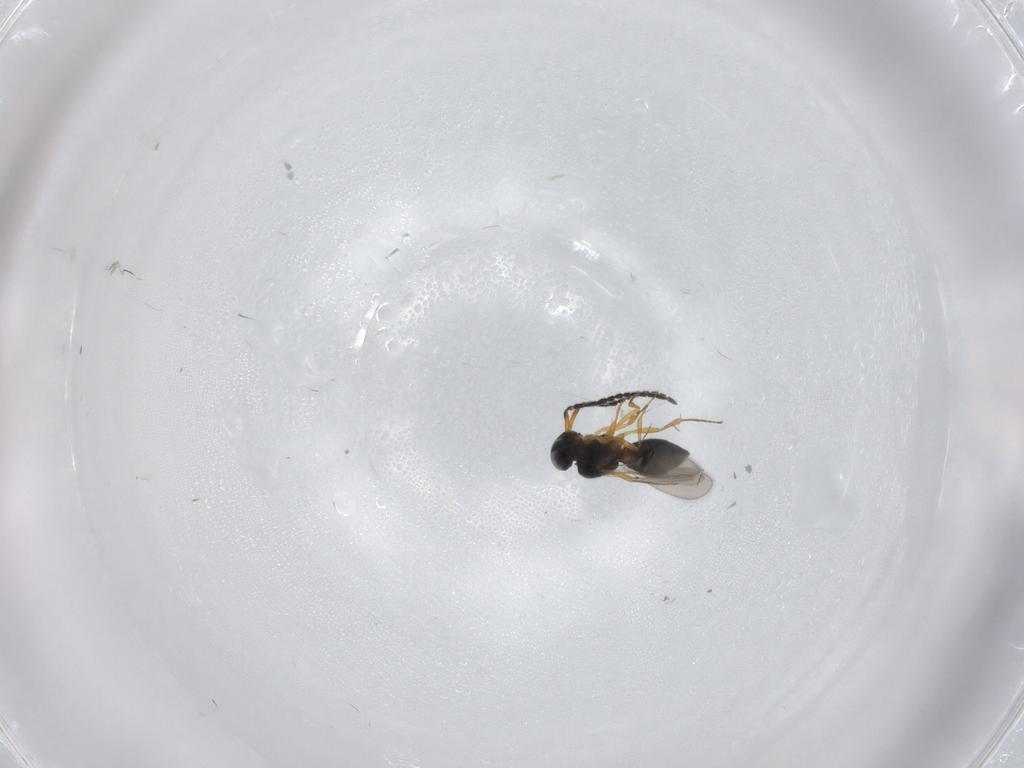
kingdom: Animalia
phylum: Arthropoda
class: Insecta
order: Hymenoptera
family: Scelionidae
